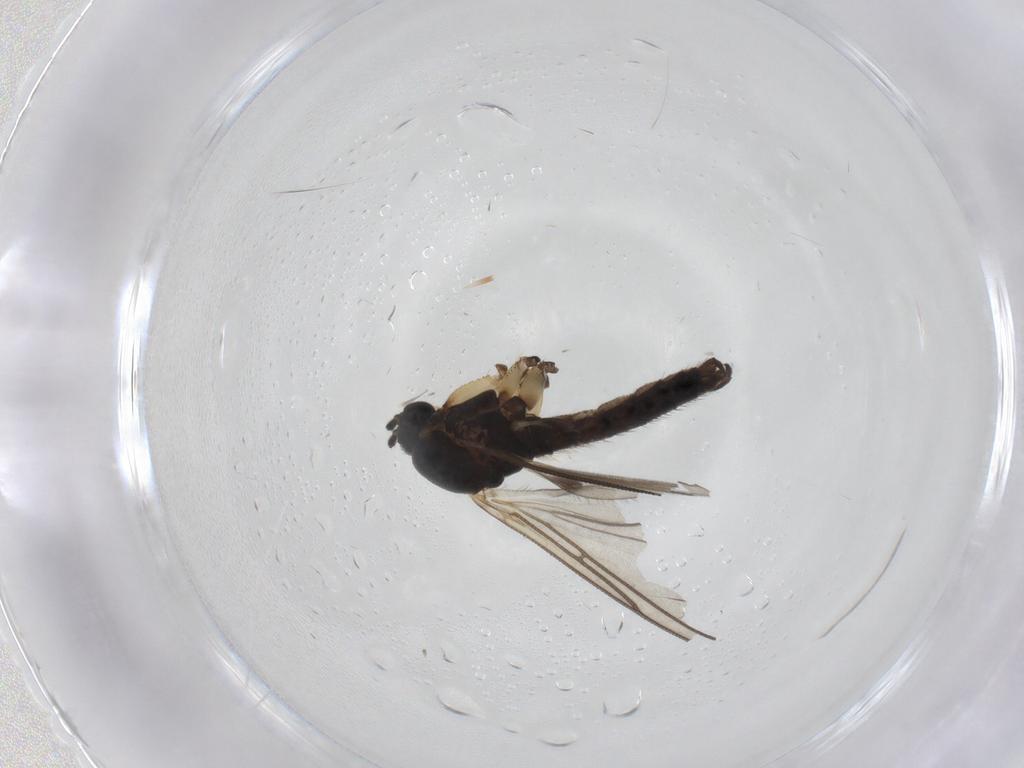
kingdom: Animalia
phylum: Arthropoda
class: Insecta
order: Diptera
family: Sciaridae
